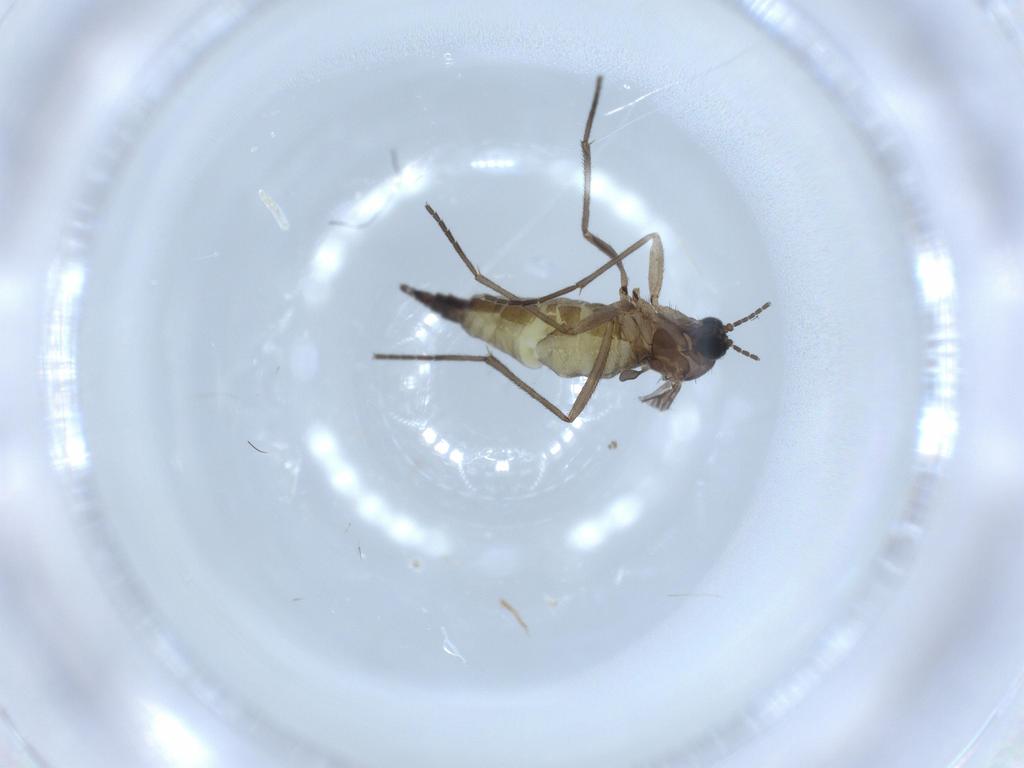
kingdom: Animalia
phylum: Arthropoda
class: Insecta
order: Diptera
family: Sciaridae
